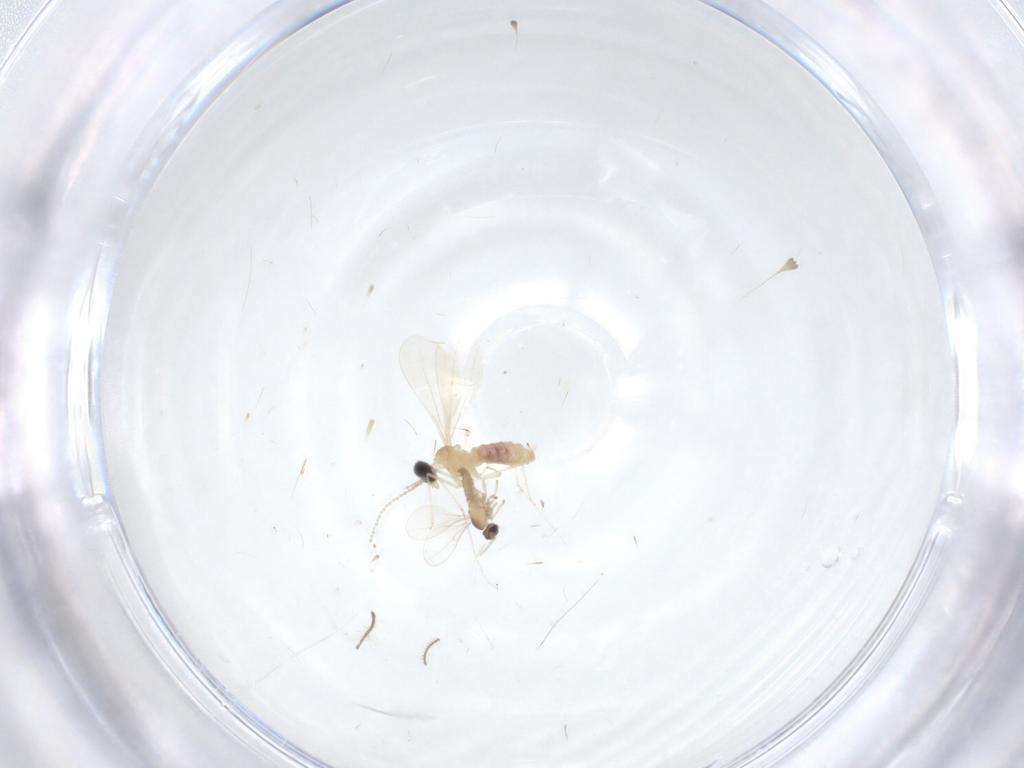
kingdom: Animalia
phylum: Arthropoda
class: Insecta
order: Diptera
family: Cecidomyiidae
